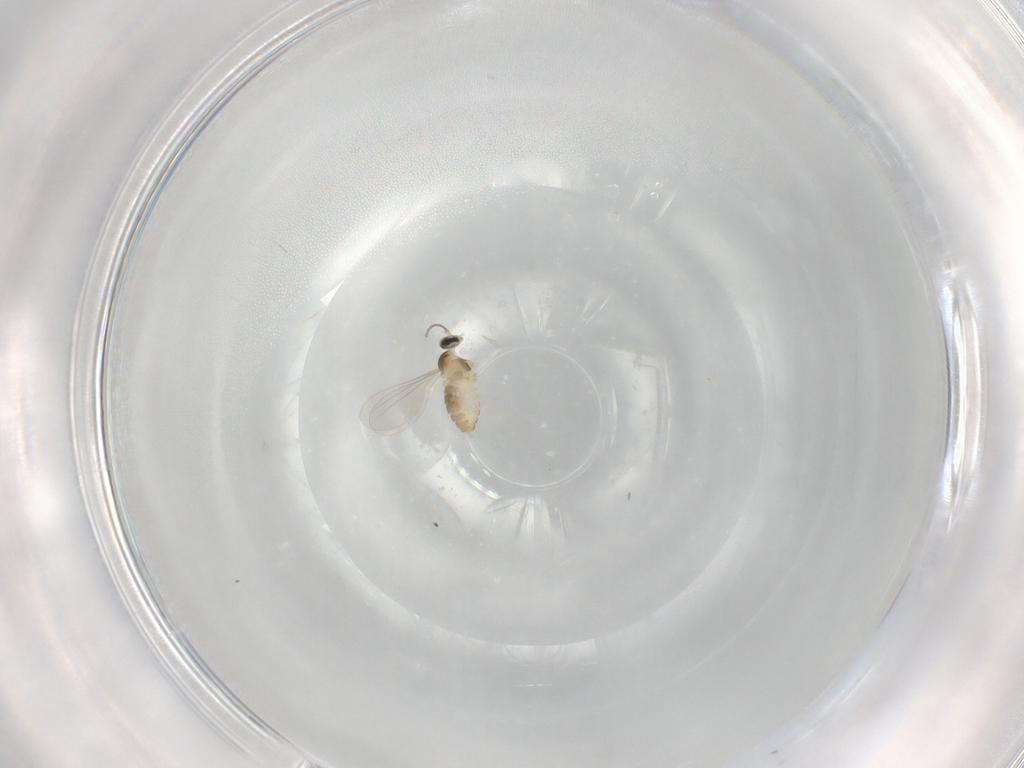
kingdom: Animalia
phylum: Arthropoda
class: Insecta
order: Diptera
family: Cecidomyiidae
